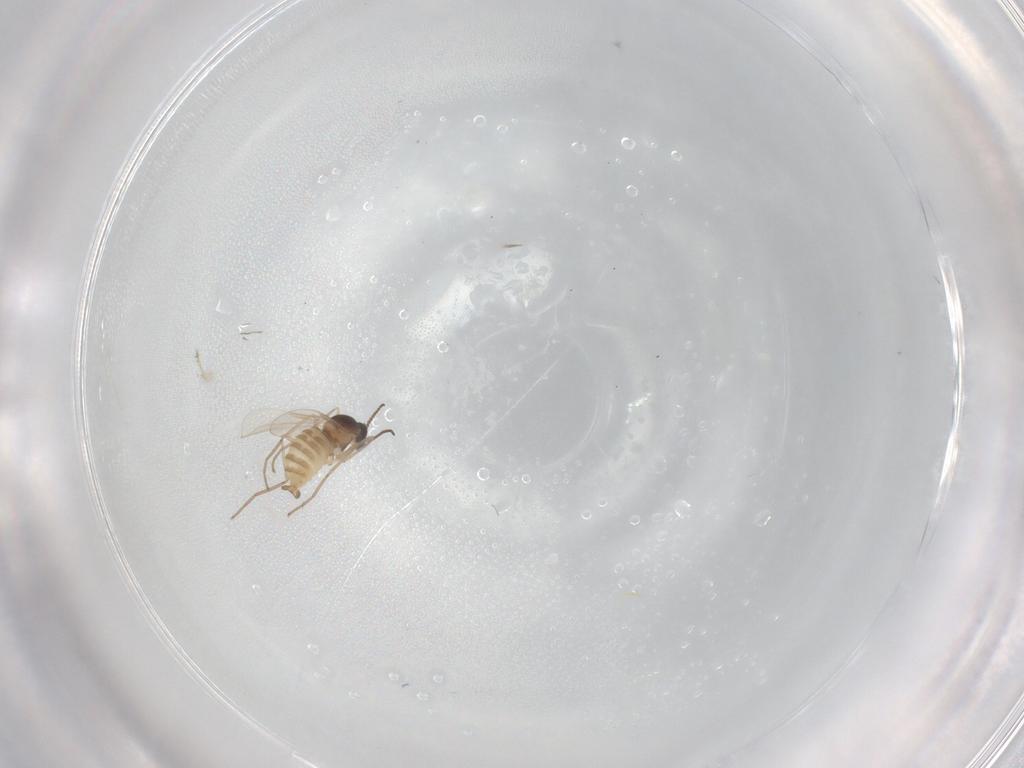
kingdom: Animalia
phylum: Arthropoda
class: Insecta
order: Diptera
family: Cecidomyiidae
